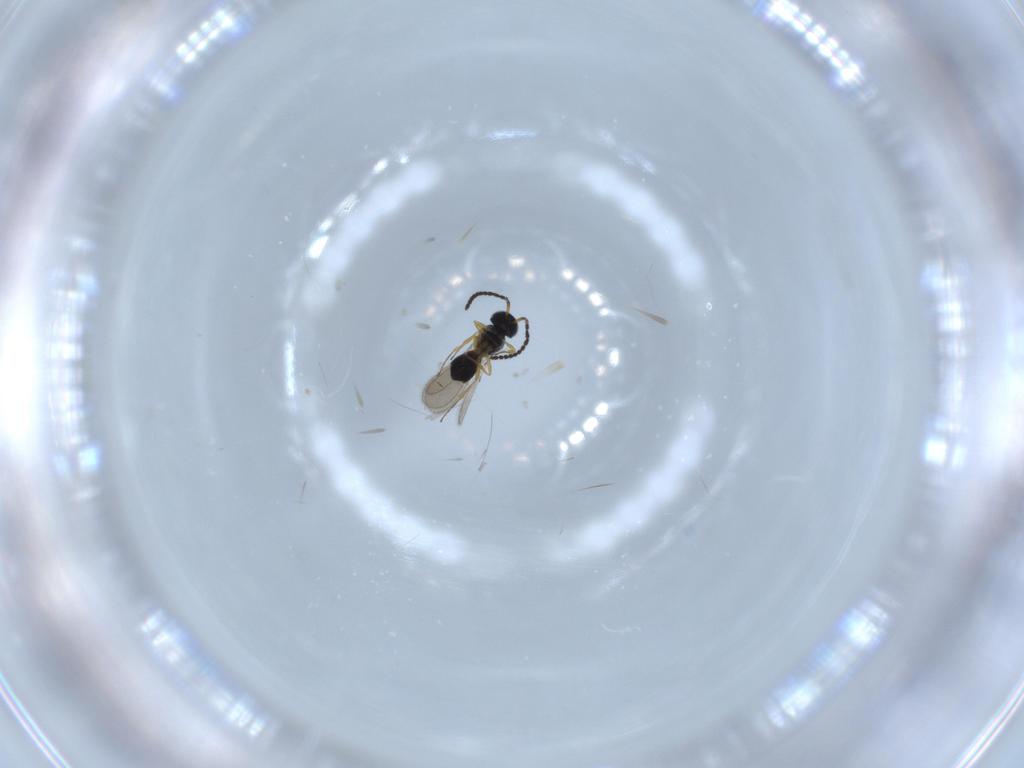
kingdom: Animalia
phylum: Arthropoda
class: Insecta
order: Hymenoptera
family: Scelionidae
